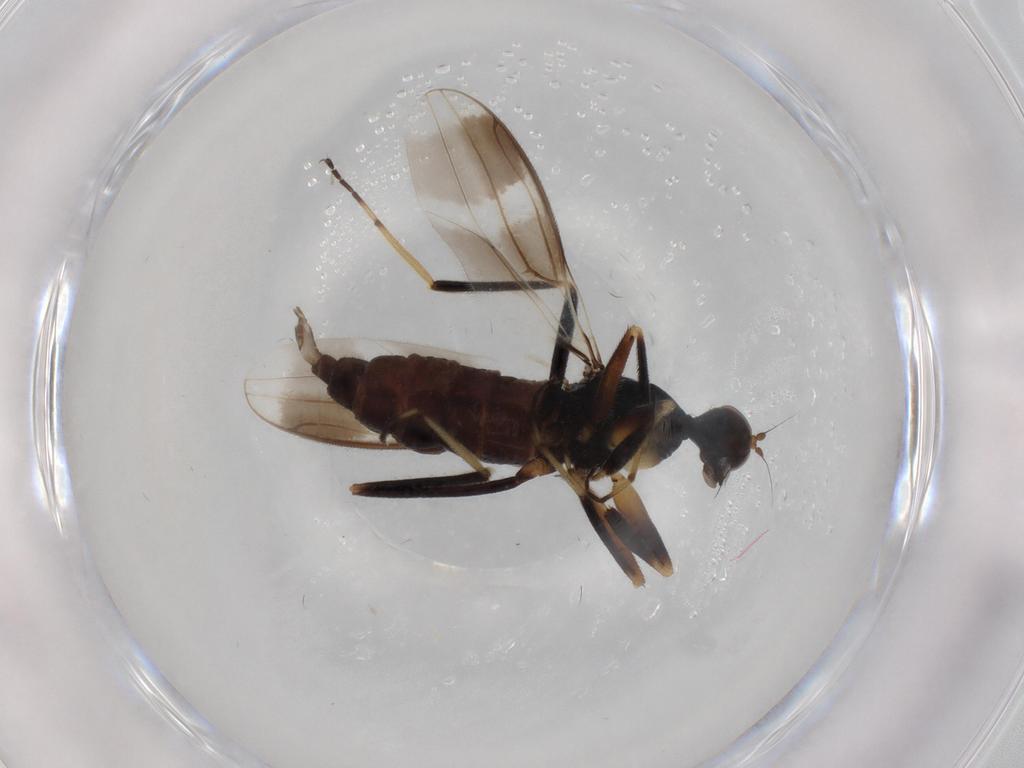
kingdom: Animalia
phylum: Arthropoda
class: Insecta
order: Diptera
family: Hybotidae
